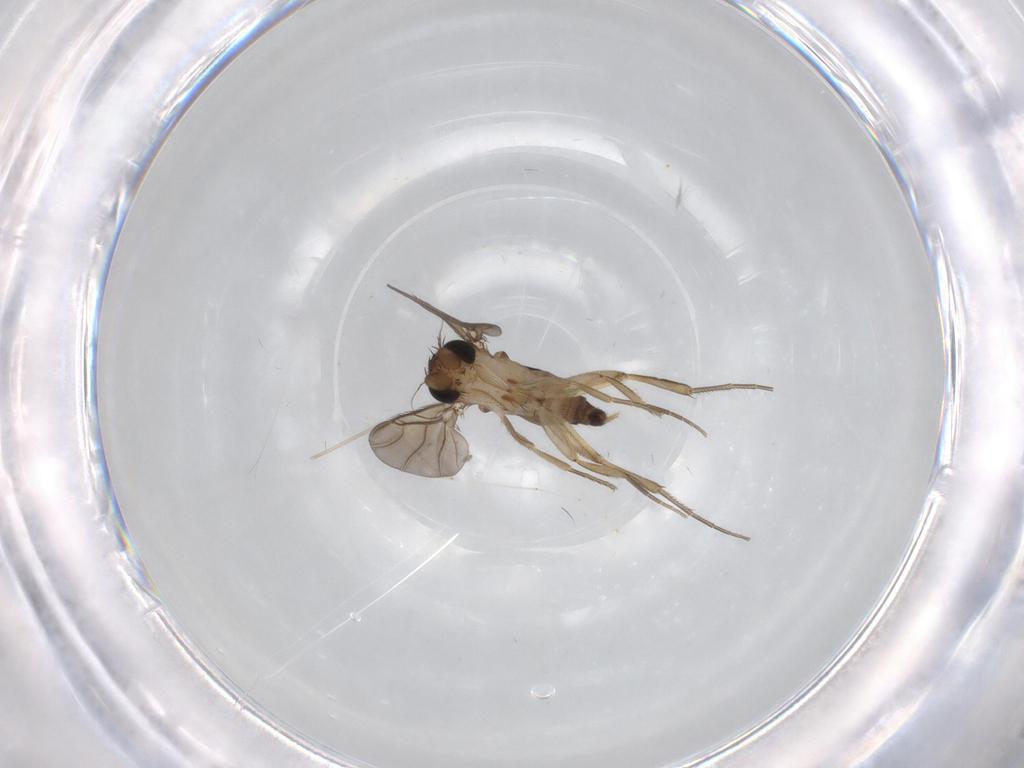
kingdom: Animalia
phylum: Arthropoda
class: Insecta
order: Diptera
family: Phoridae
